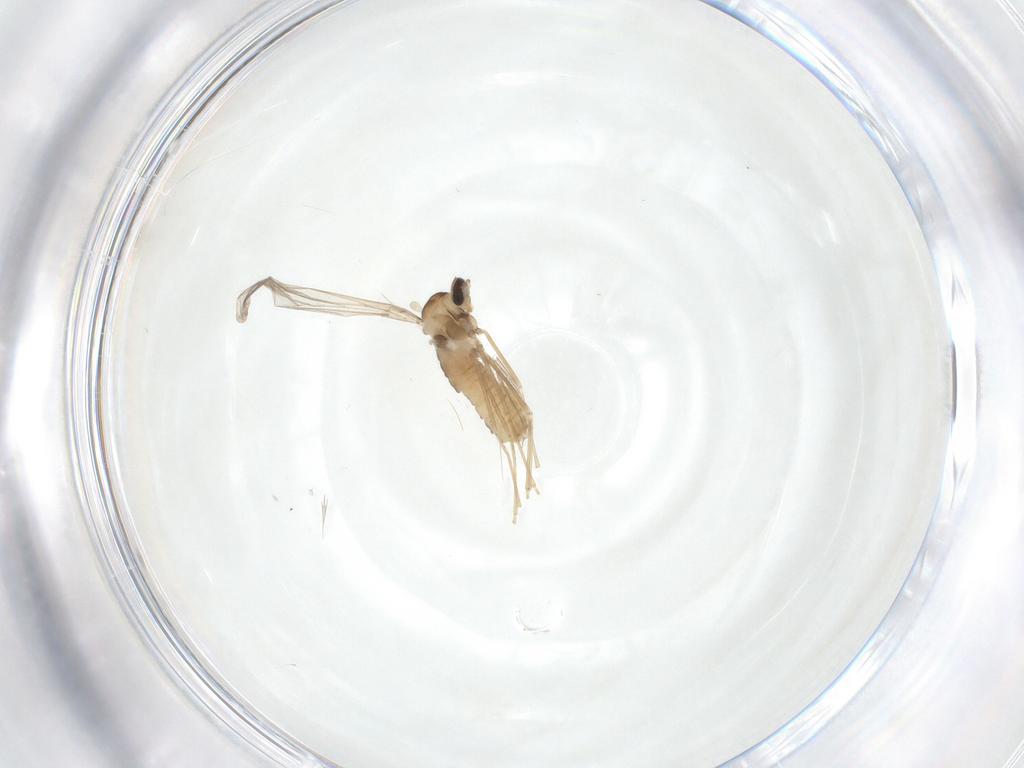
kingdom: Animalia
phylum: Arthropoda
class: Insecta
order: Diptera
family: Cecidomyiidae
